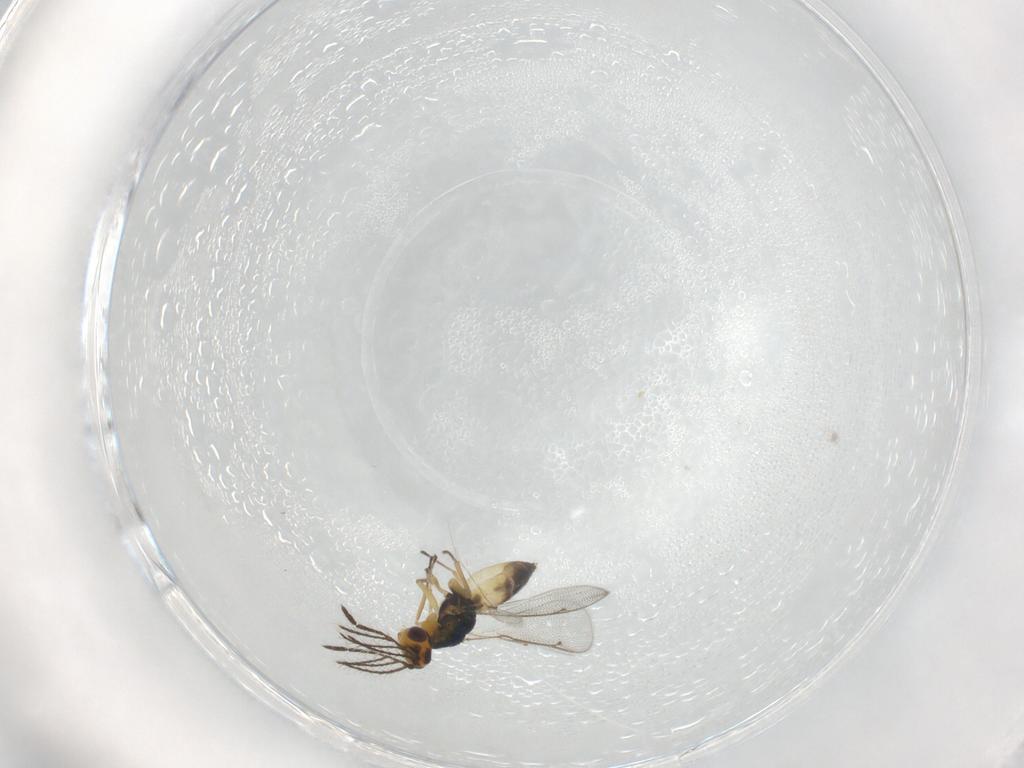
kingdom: Animalia
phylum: Arthropoda
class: Insecta
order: Hymenoptera
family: Eulophidae
